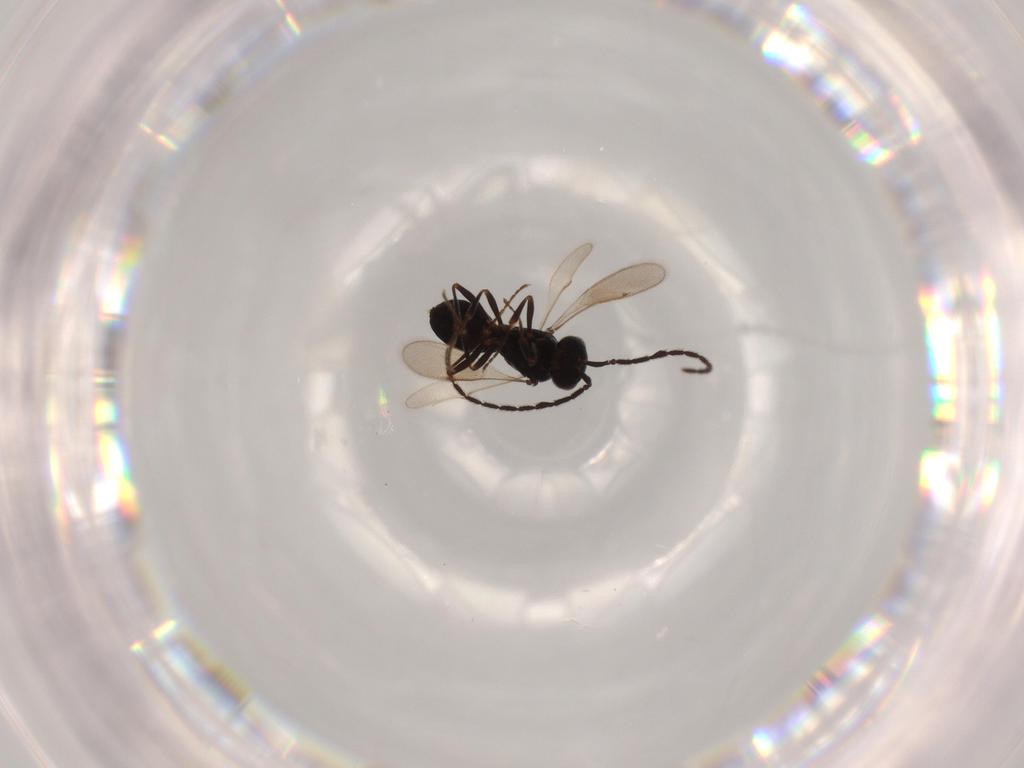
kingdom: Animalia
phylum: Arthropoda
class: Insecta
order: Hymenoptera
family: Scelionidae
